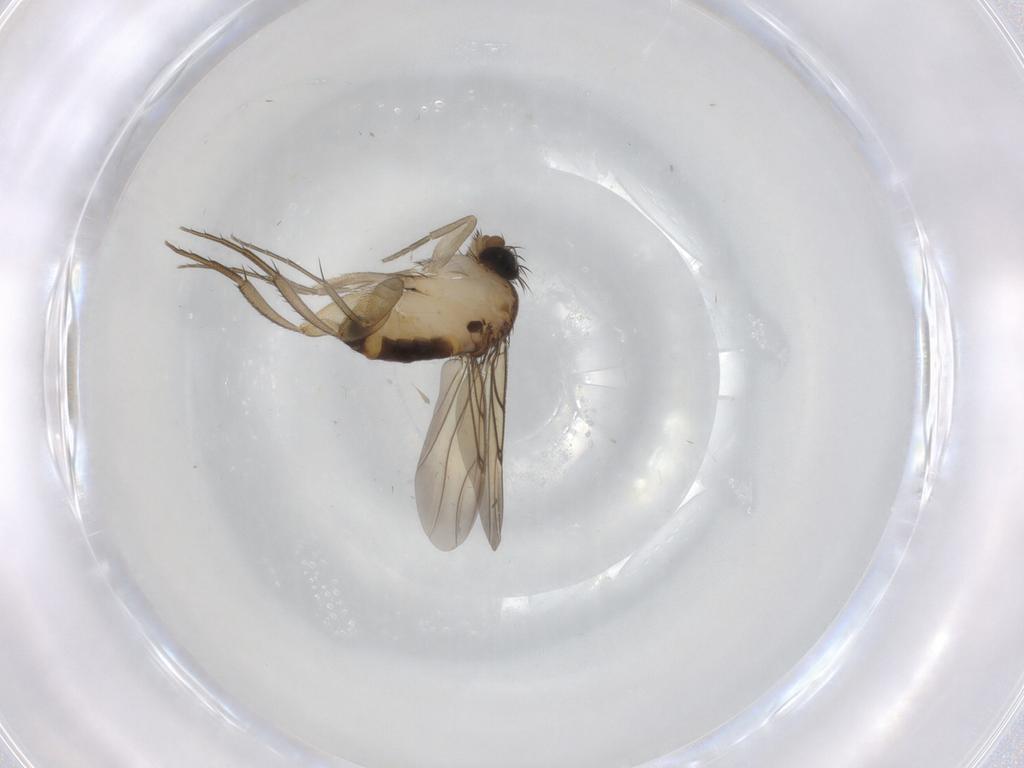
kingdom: Animalia
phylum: Arthropoda
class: Insecta
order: Diptera
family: Phoridae
